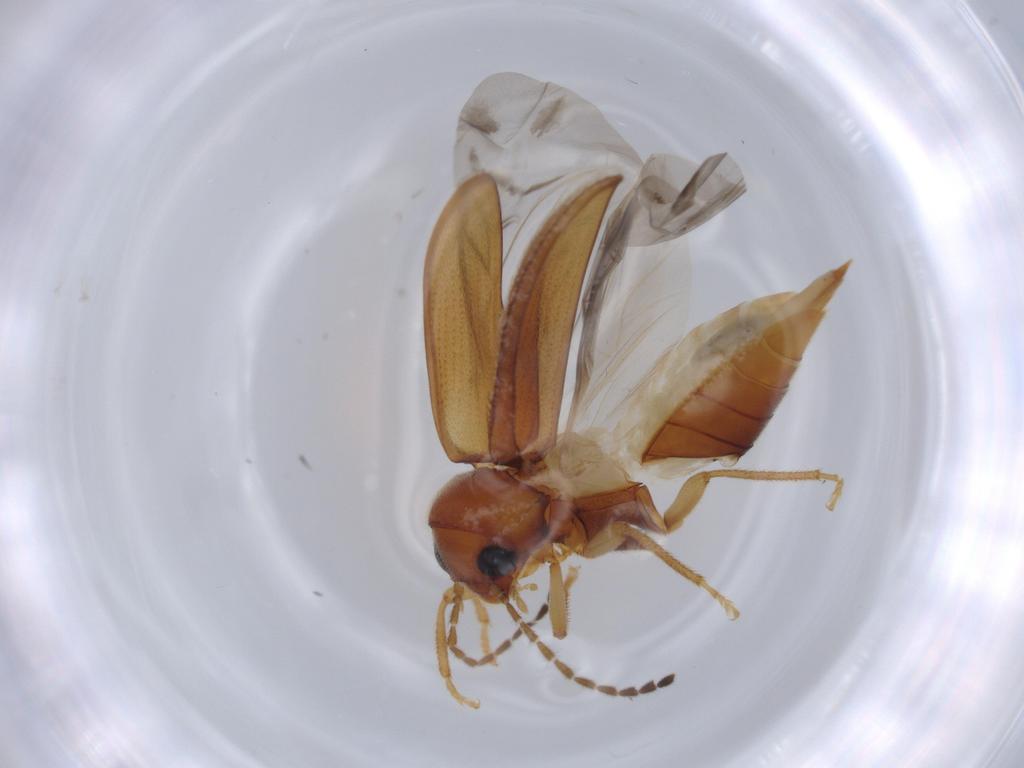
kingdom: Animalia
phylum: Arthropoda
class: Insecta
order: Coleoptera
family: Ptilodactylidae
